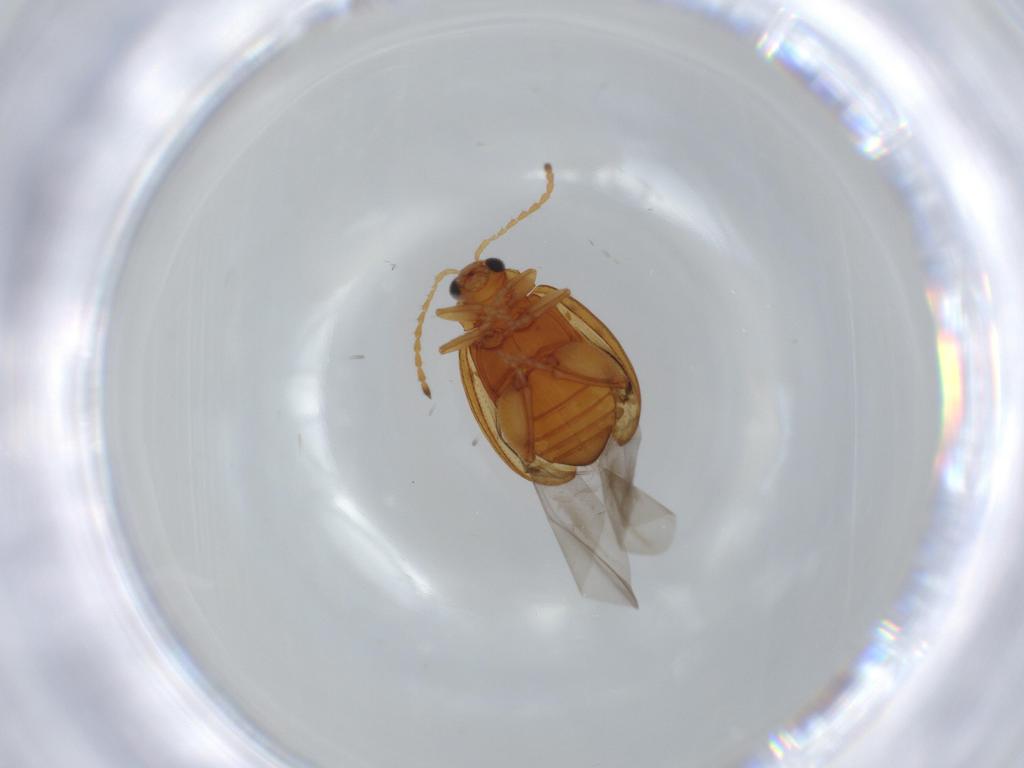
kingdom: Animalia
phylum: Arthropoda
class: Insecta
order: Coleoptera
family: Chrysomelidae
